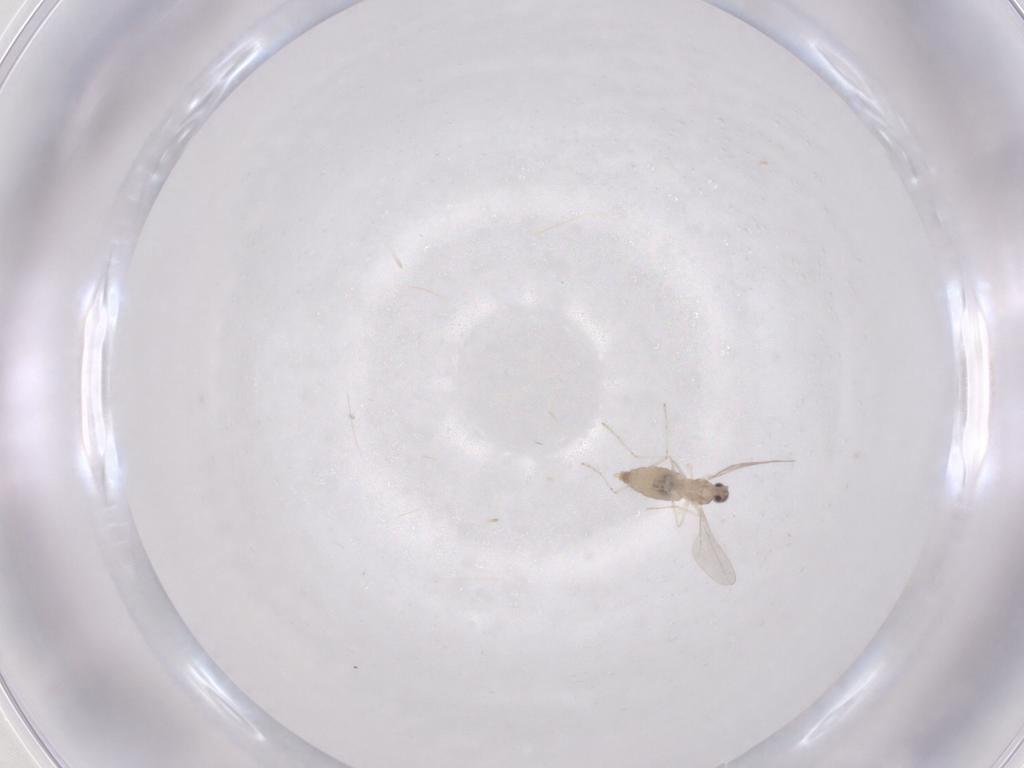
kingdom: Animalia
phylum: Arthropoda
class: Insecta
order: Diptera
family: Cecidomyiidae
